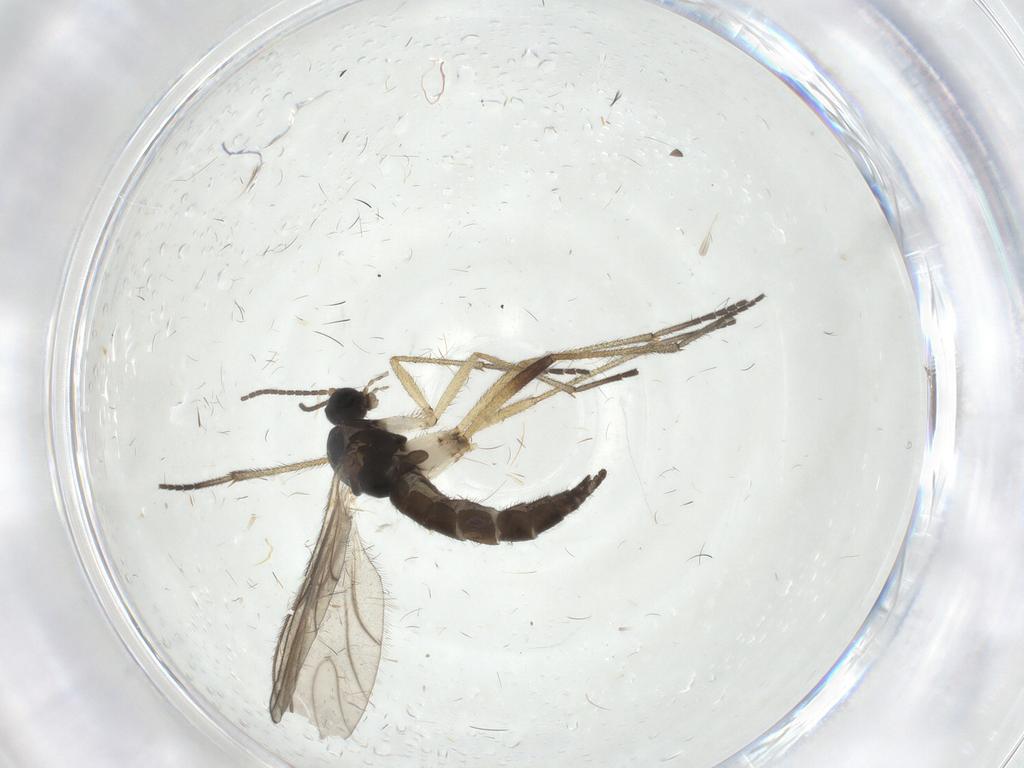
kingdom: Animalia
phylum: Arthropoda
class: Insecta
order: Diptera
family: Sciaridae
